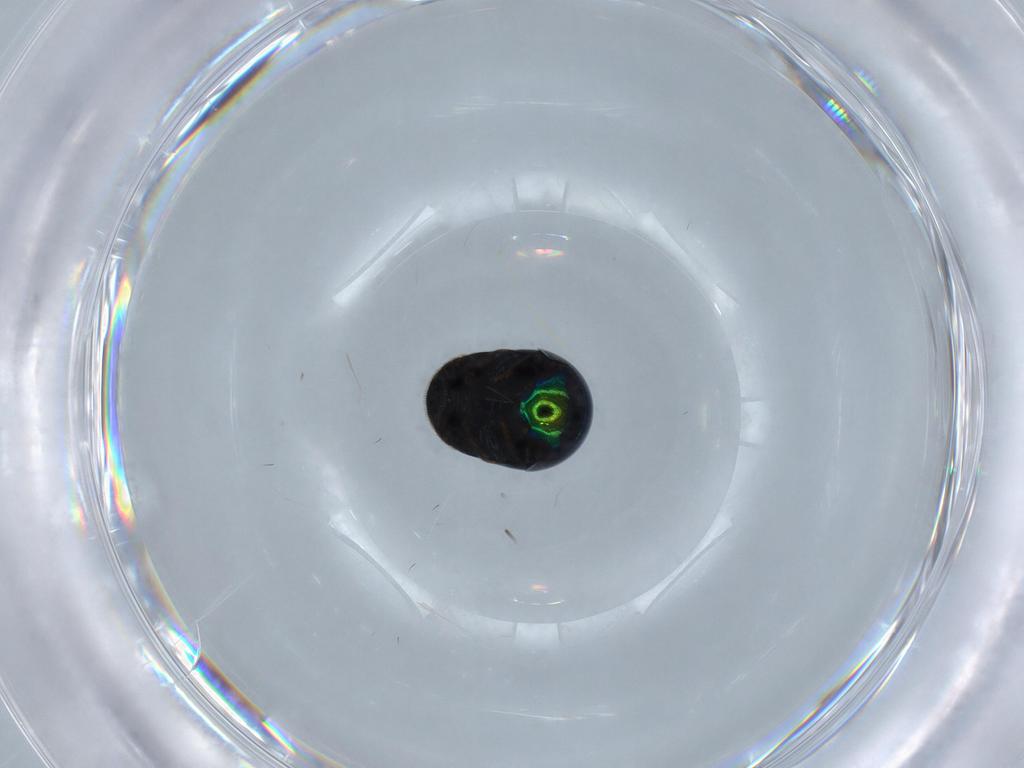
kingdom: Animalia
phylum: Arthropoda
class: Insecta
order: Coleoptera
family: Cybocephalidae
